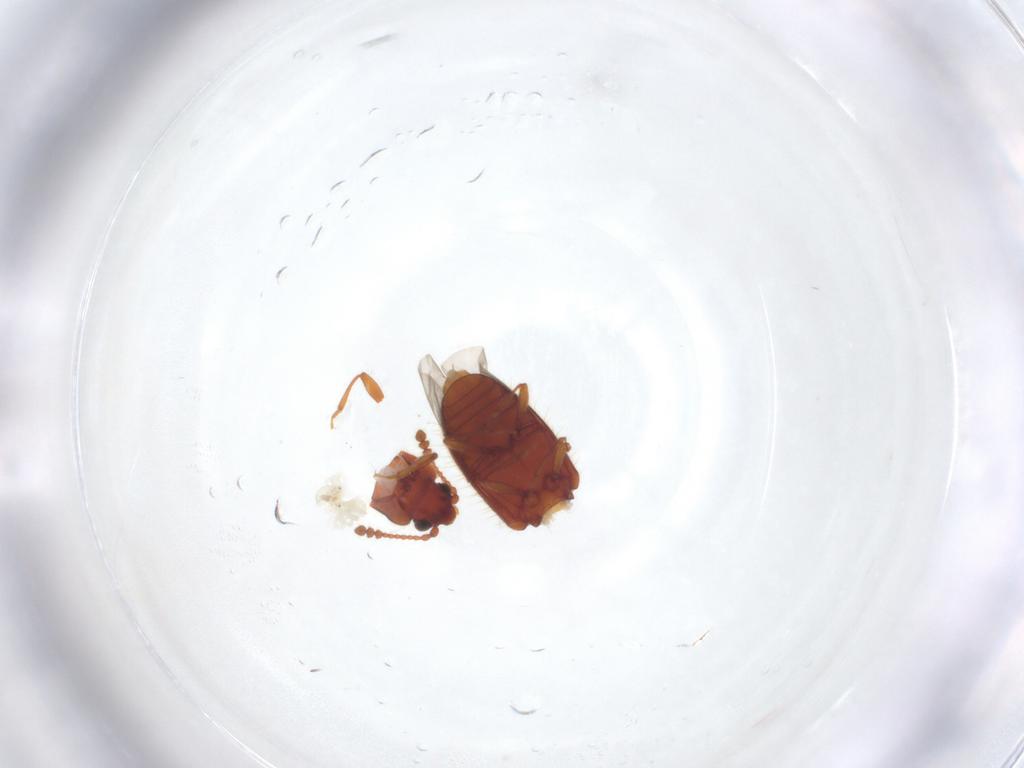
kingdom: Animalia
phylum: Arthropoda
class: Insecta
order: Coleoptera
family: Cryptophagidae
